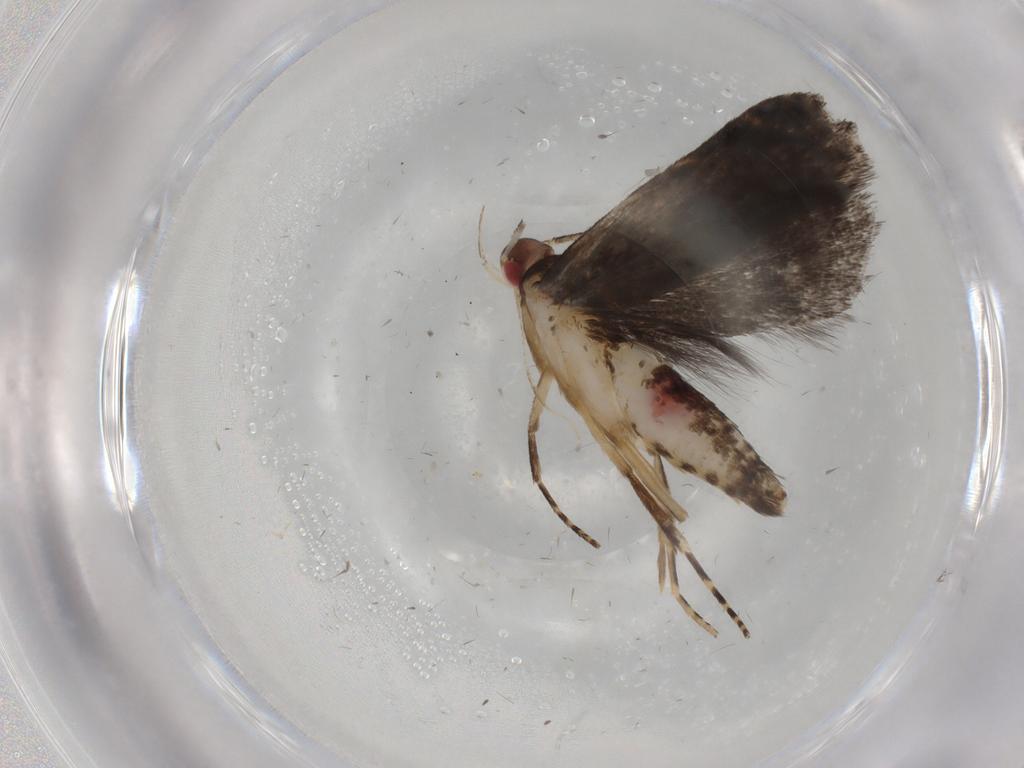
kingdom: Animalia
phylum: Arthropoda
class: Insecta
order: Lepidoptera
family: Gelechiidae
